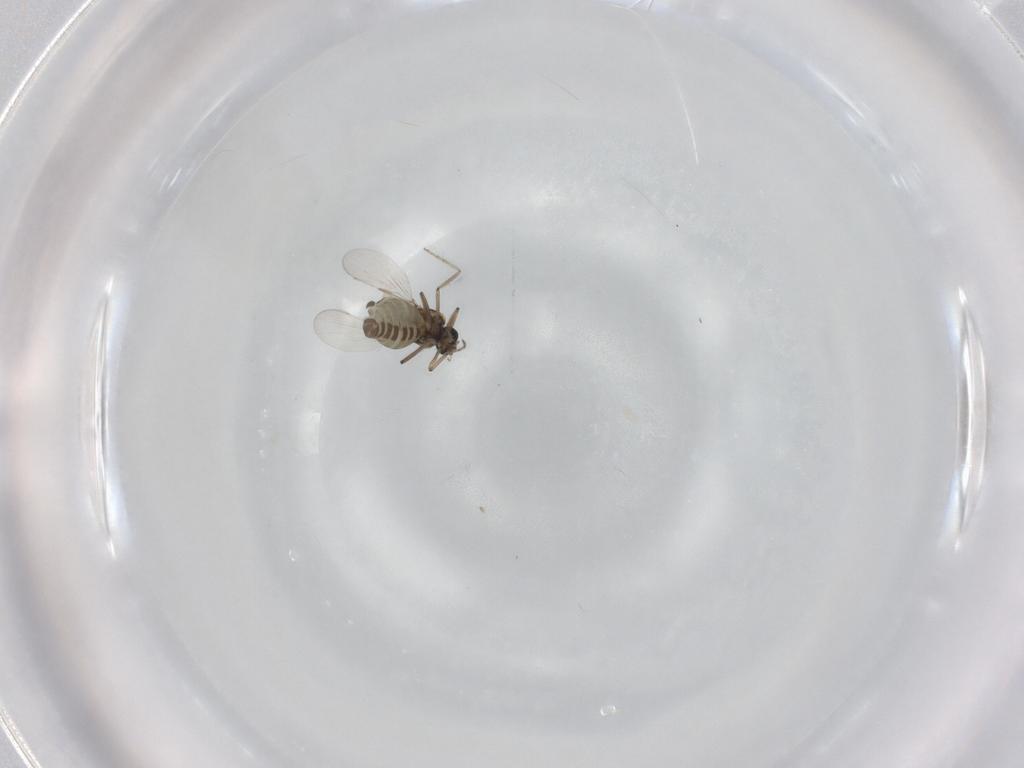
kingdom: Animalia
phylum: Arthropoda
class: Insecta
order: Diptera
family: Ceratopogonidae
